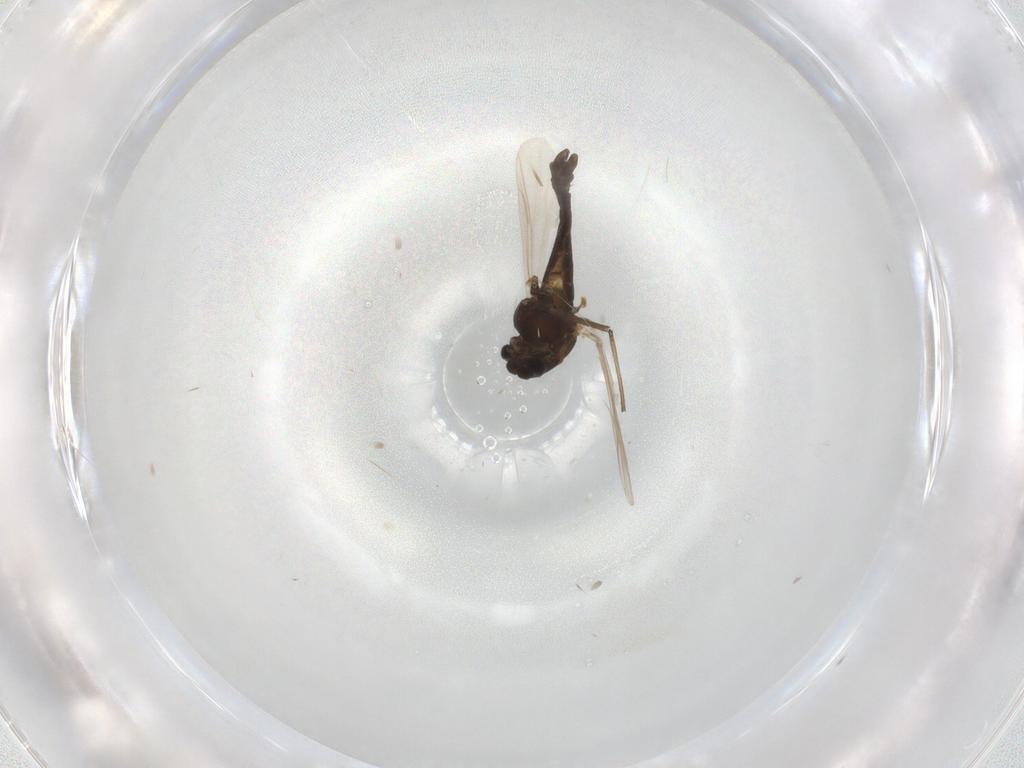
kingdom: Animalia
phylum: Arthropoda
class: Insecta
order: Diptera
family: Chironomidae
